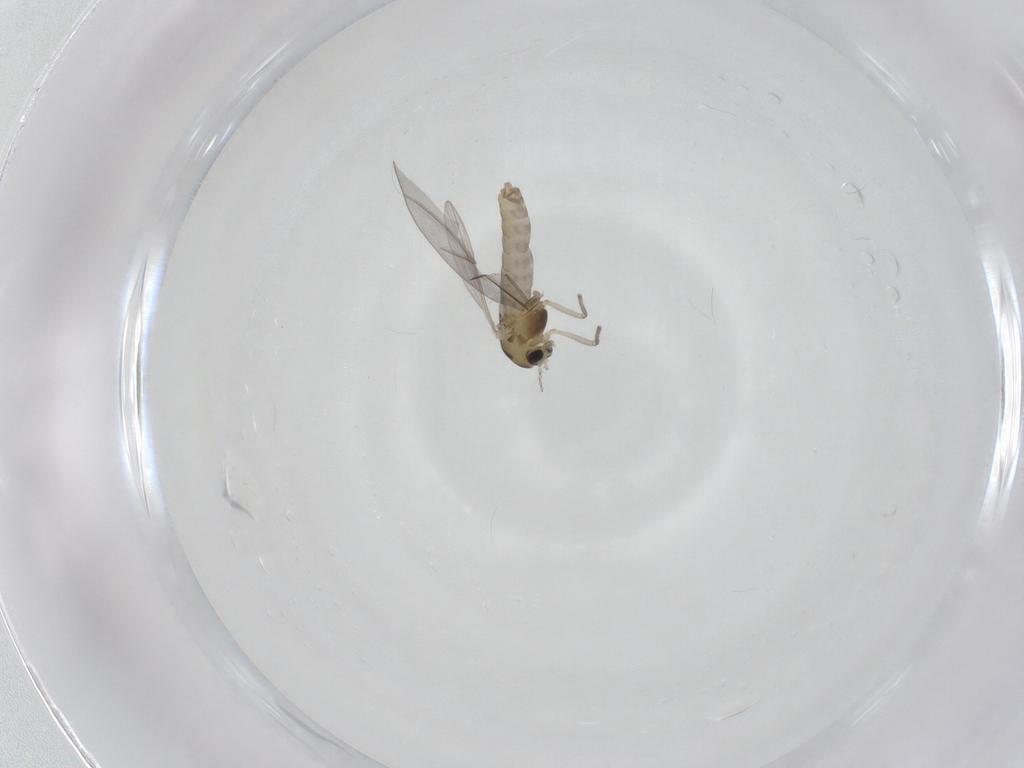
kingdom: Animalia
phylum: Arthropoda
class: Insecta
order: Diptera
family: Chironomidae
